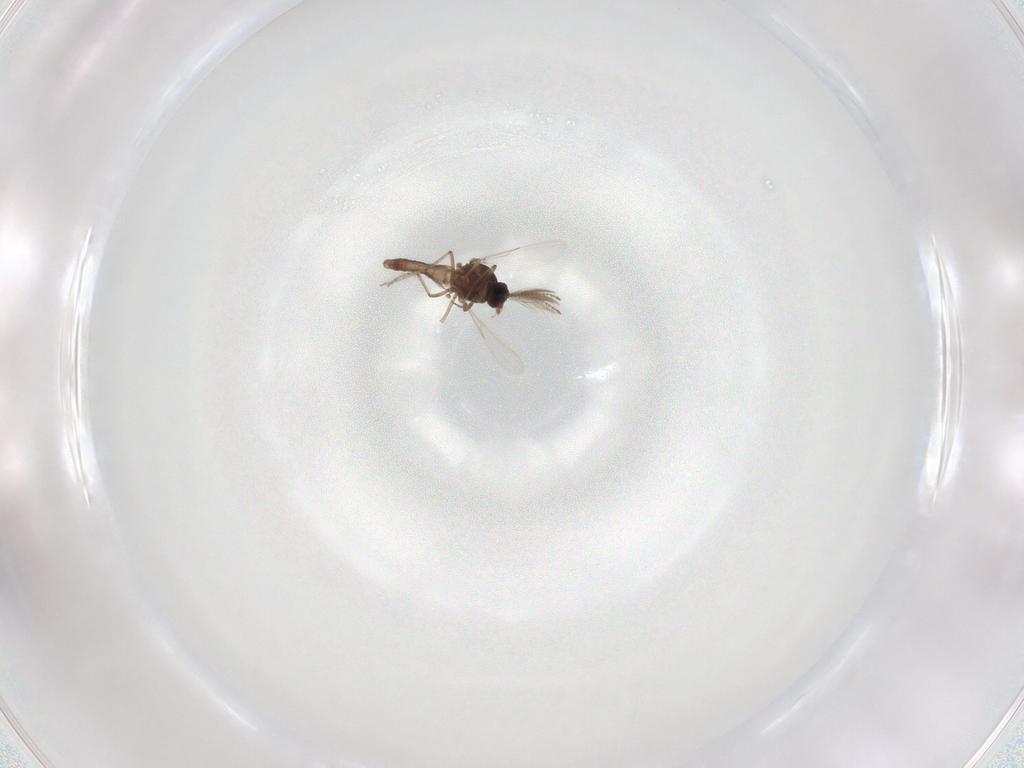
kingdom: Animalia
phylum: Arthropoda
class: Insecta
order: Diptera
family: Ceratopogonidae
